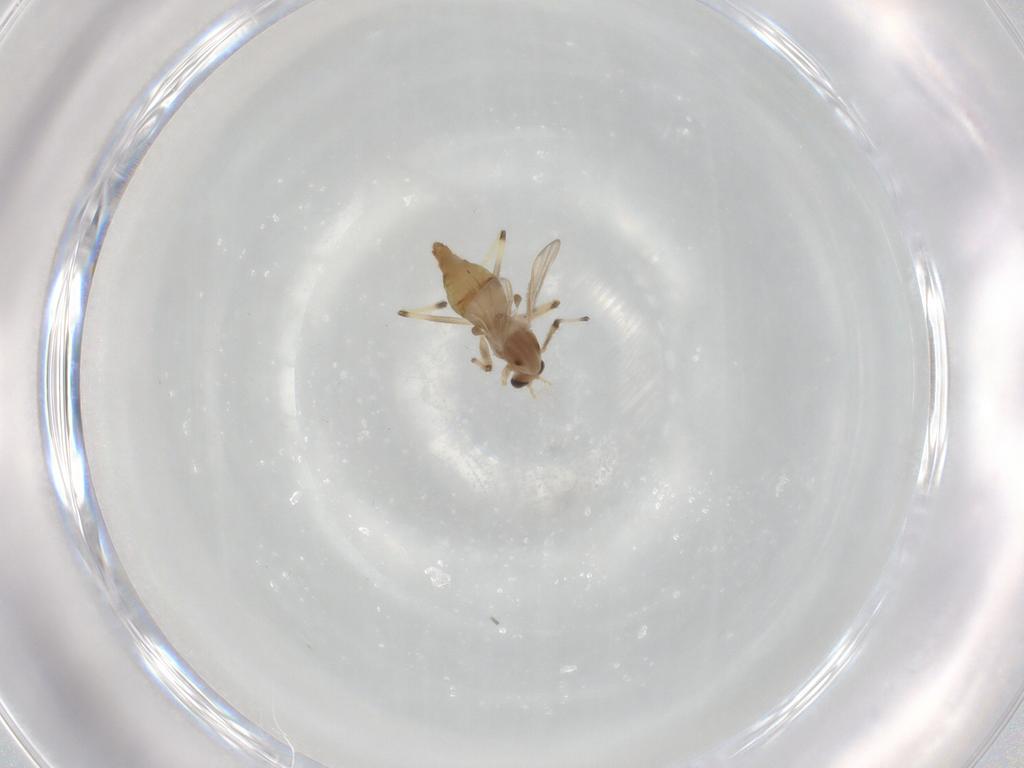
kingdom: Animalia
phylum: Arthropoda
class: Insecta
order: Diptera
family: Chironomidae
